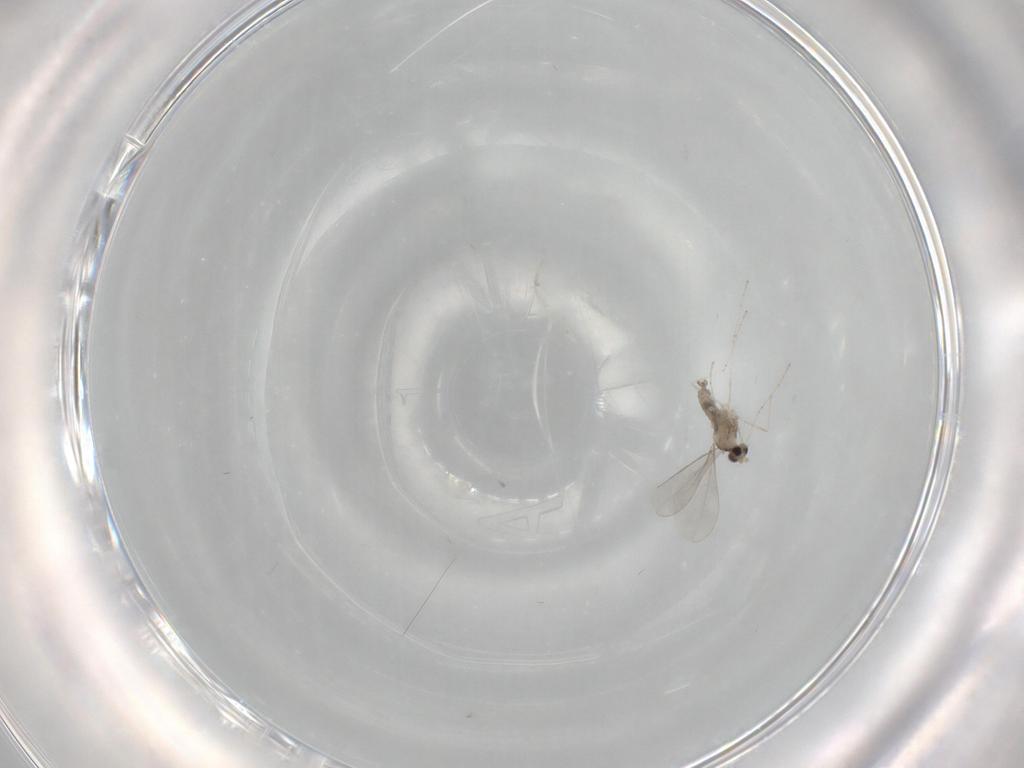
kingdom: Animalia
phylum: Arthropoda
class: Insecta
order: Diptera
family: Cecidomyiidae
